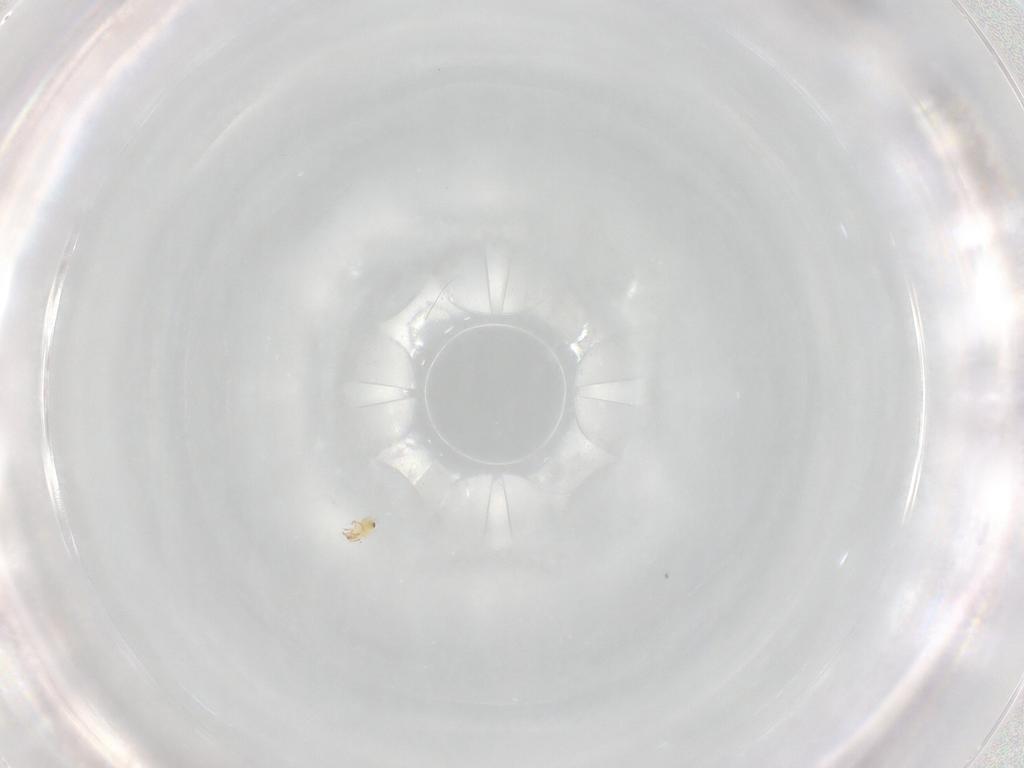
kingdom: Animalia
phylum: Arthropoda
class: Arachnida
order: Sarcoptiformes
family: Humerobatidae
